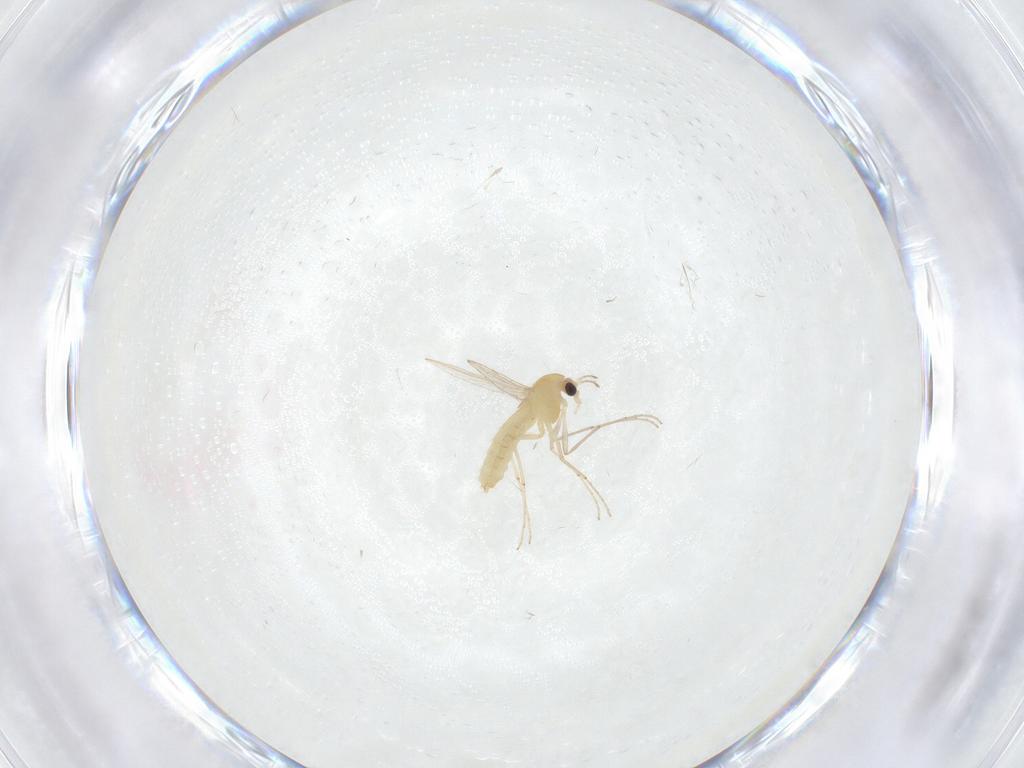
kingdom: Animalia
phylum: Arthropoda
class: Insecta
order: Diptera
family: Chironomidae
